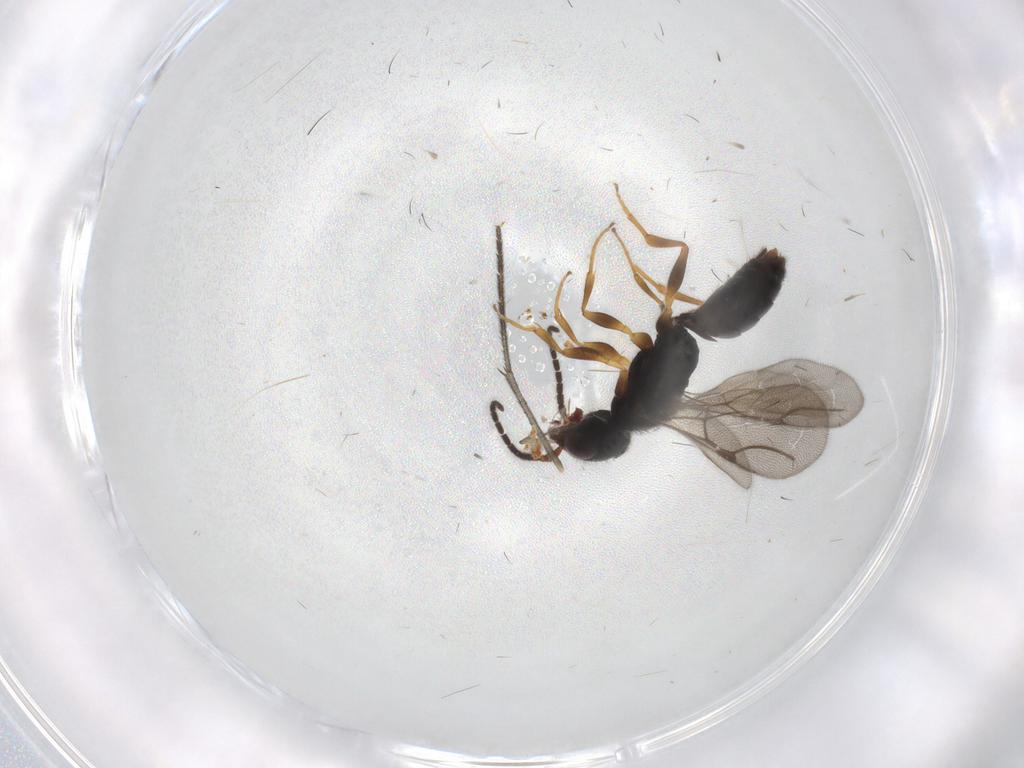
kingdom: Animalia
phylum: Arthropoda
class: Insecta
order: Hymenoptera
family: Bethylidae
